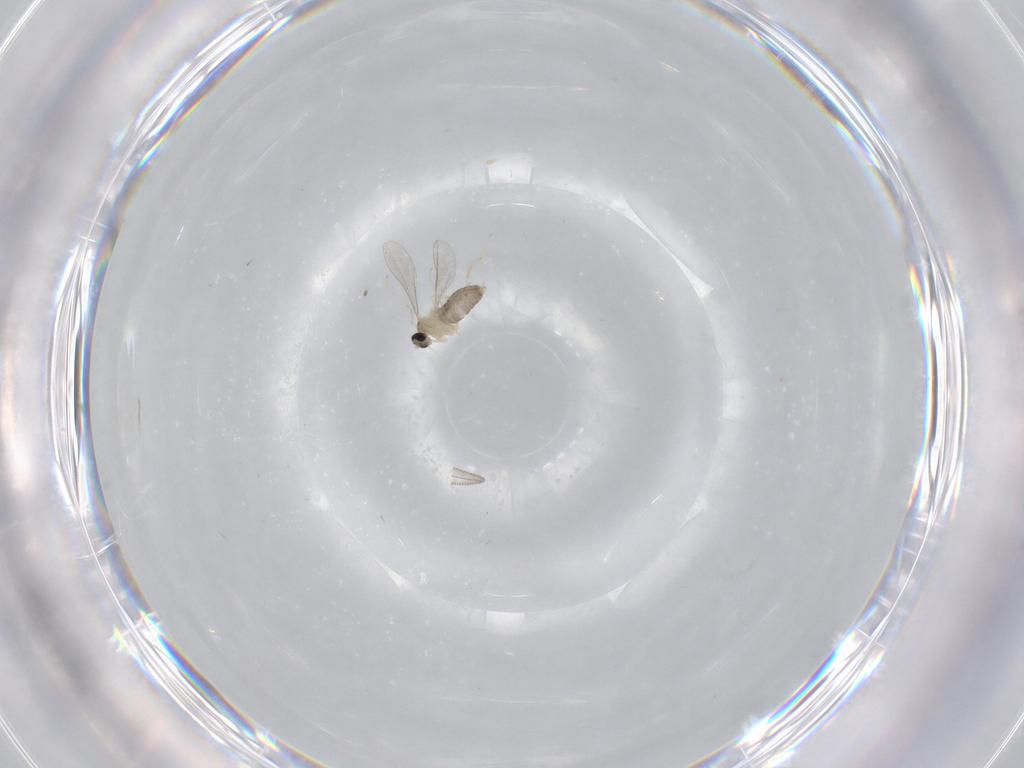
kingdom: Animalia
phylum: Arthropoda
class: Insecta
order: Diptera
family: Cecidomyiidae
